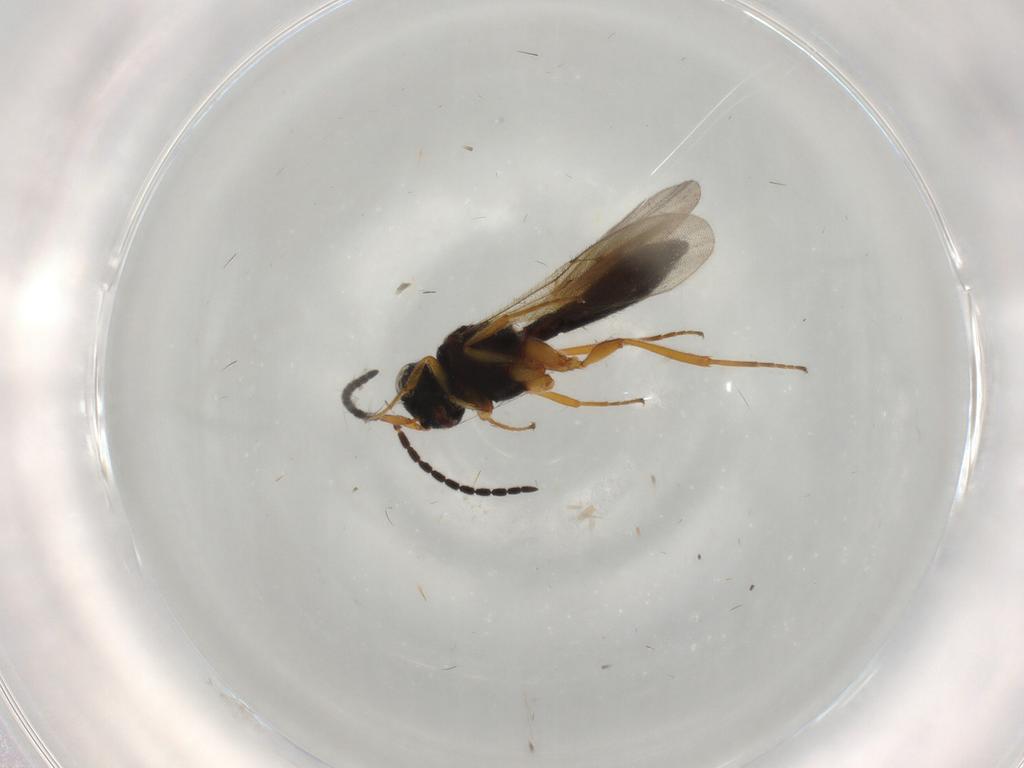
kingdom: Animalia
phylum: Arthropoda
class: Insecta
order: Hymenoptera
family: Scelionidae
